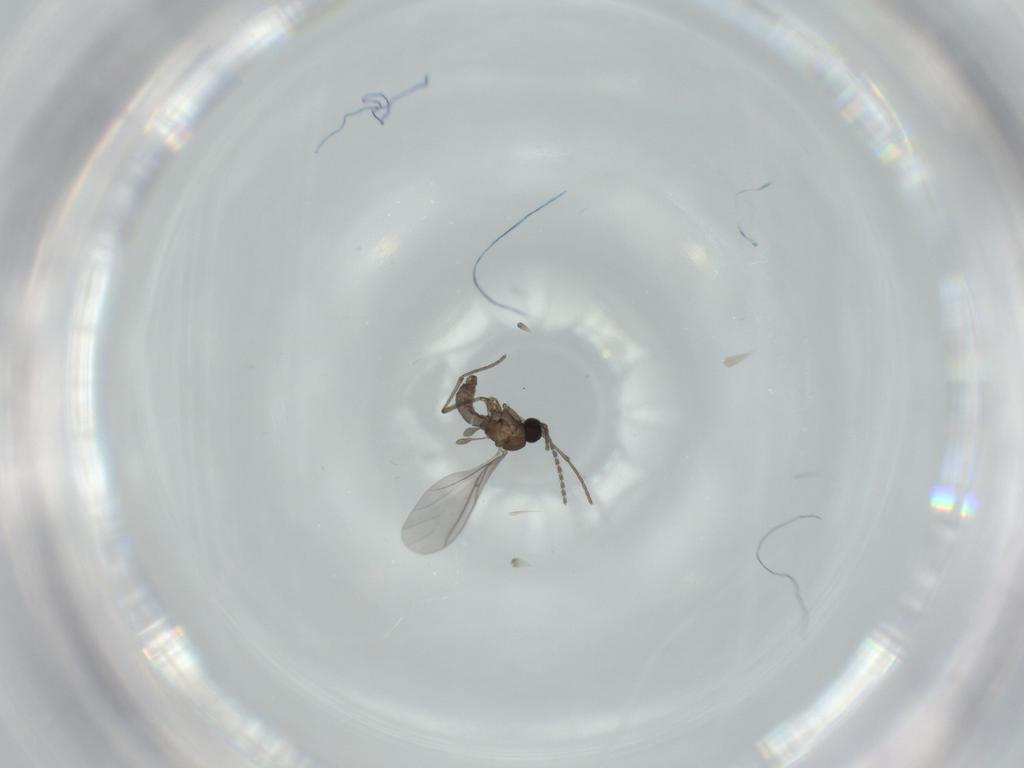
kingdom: Animalia
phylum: Arthropoda
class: Insecta
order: Diptera
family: Sciaridae
